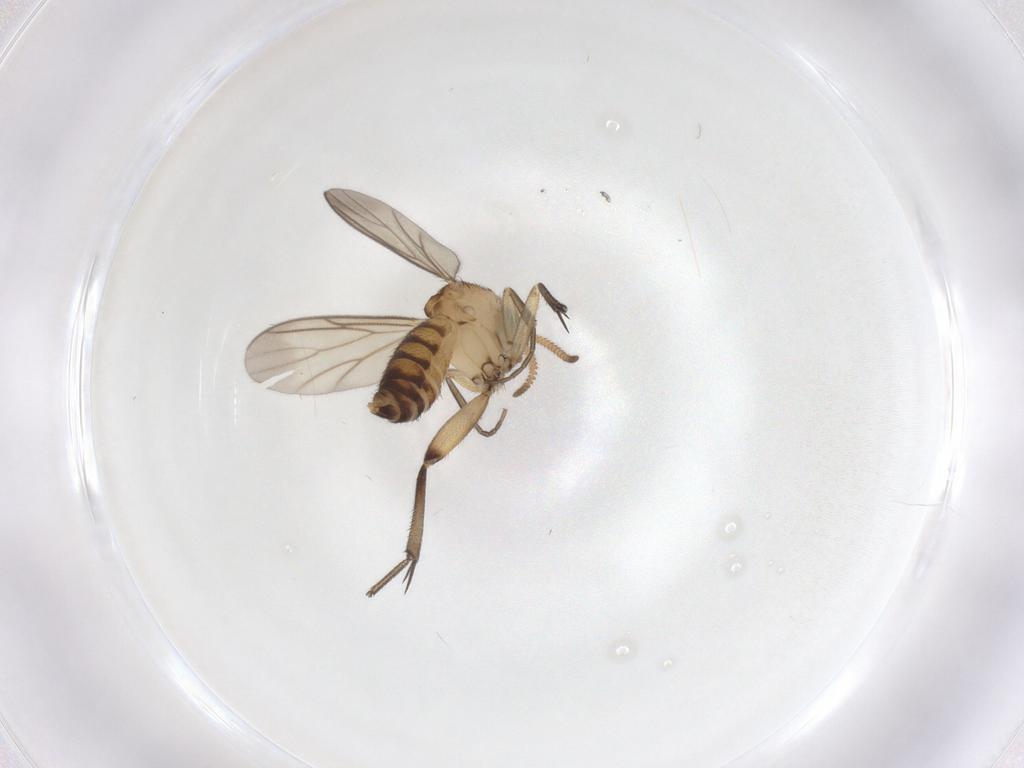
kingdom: Animalia
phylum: Arthropoda
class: Insecta
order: Diptera
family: Mycetophilidae
